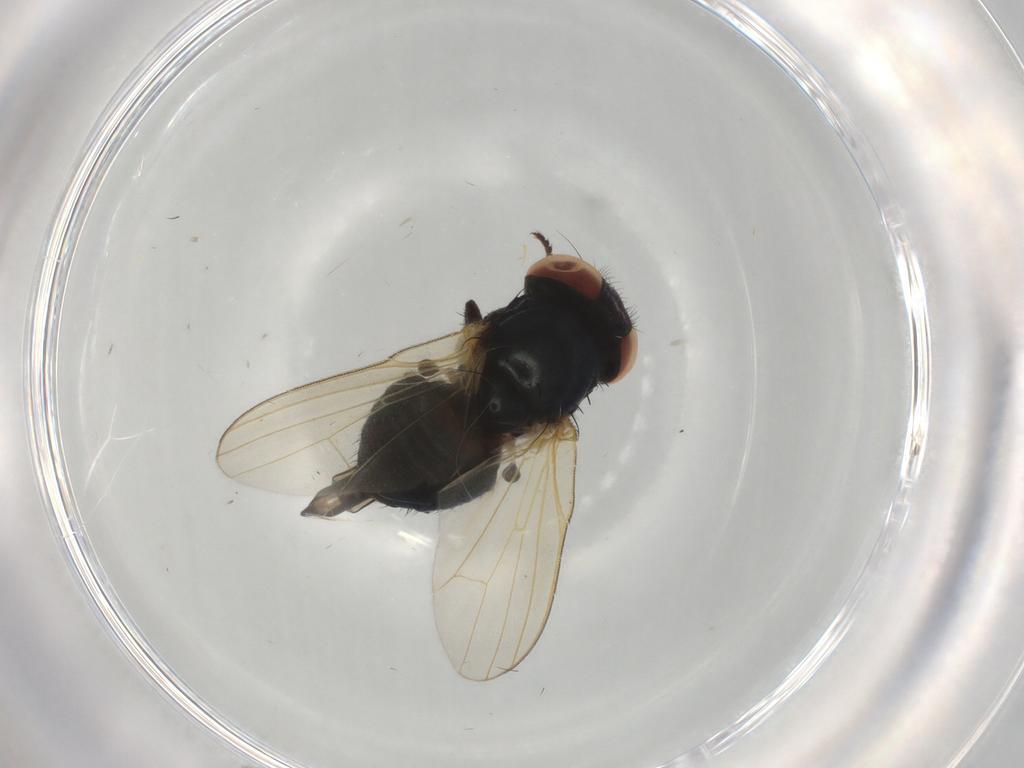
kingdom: Animalia
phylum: Arthropoda
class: Insecta
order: Diptera
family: Lonchaeidae
